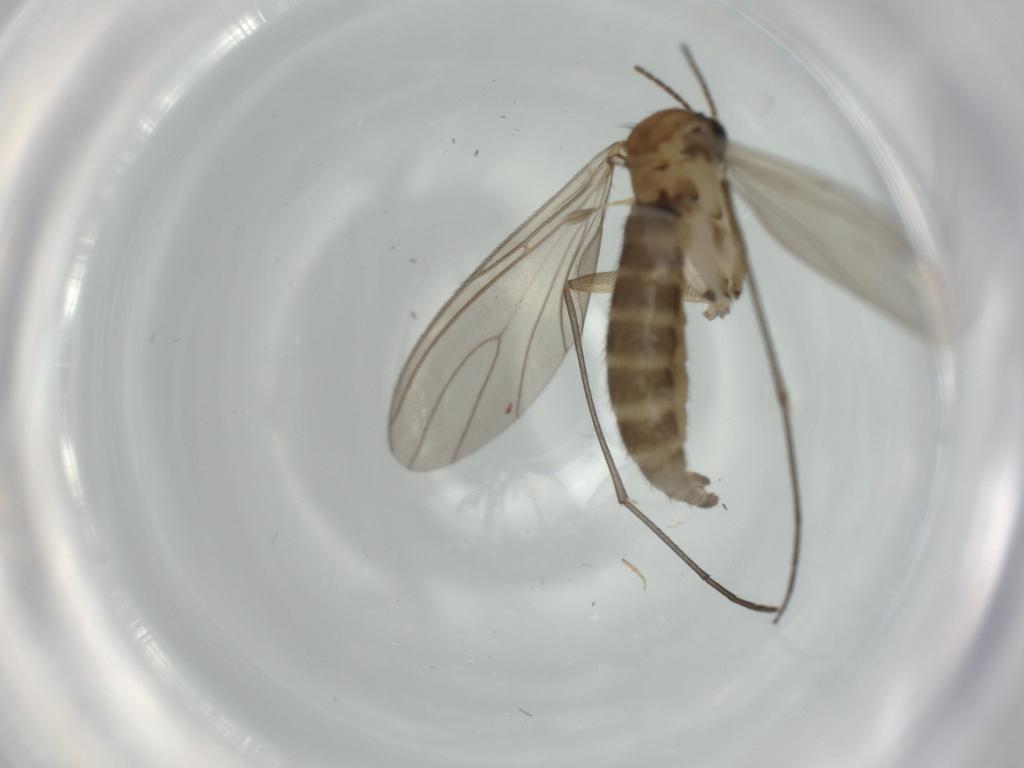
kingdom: Animalia
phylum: Arthropoda
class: Insecta
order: Diptera
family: Sciaridae
